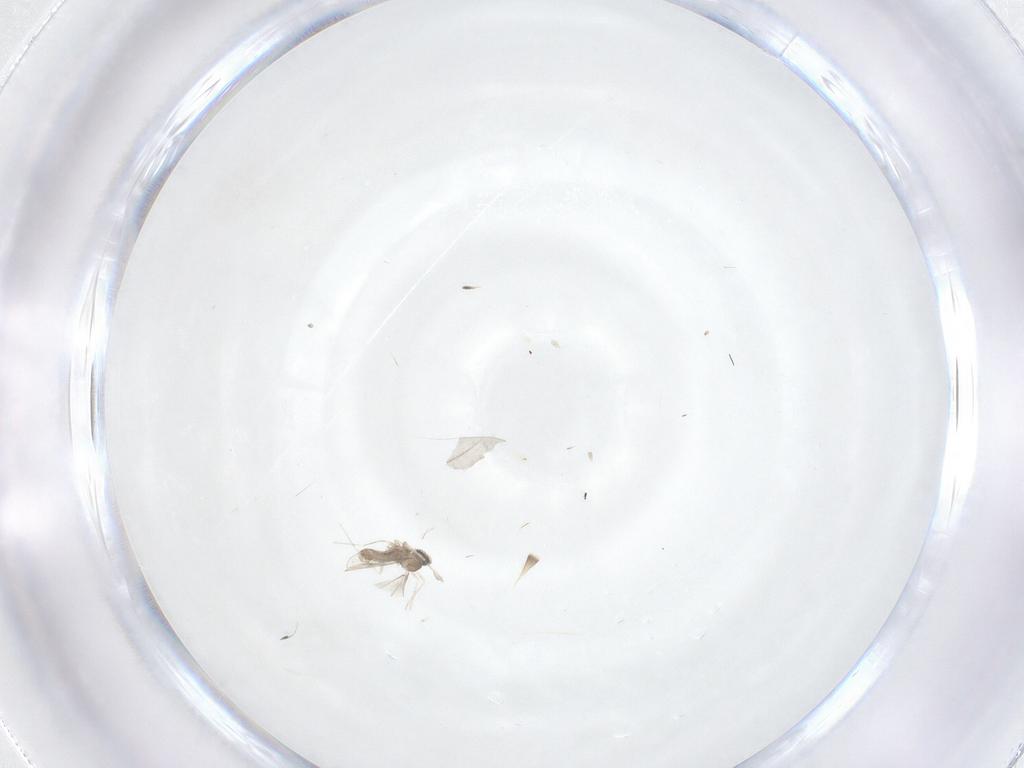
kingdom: Animalia
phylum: Arthropoda
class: Insecta
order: Diptera
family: Cecidomyiidae
